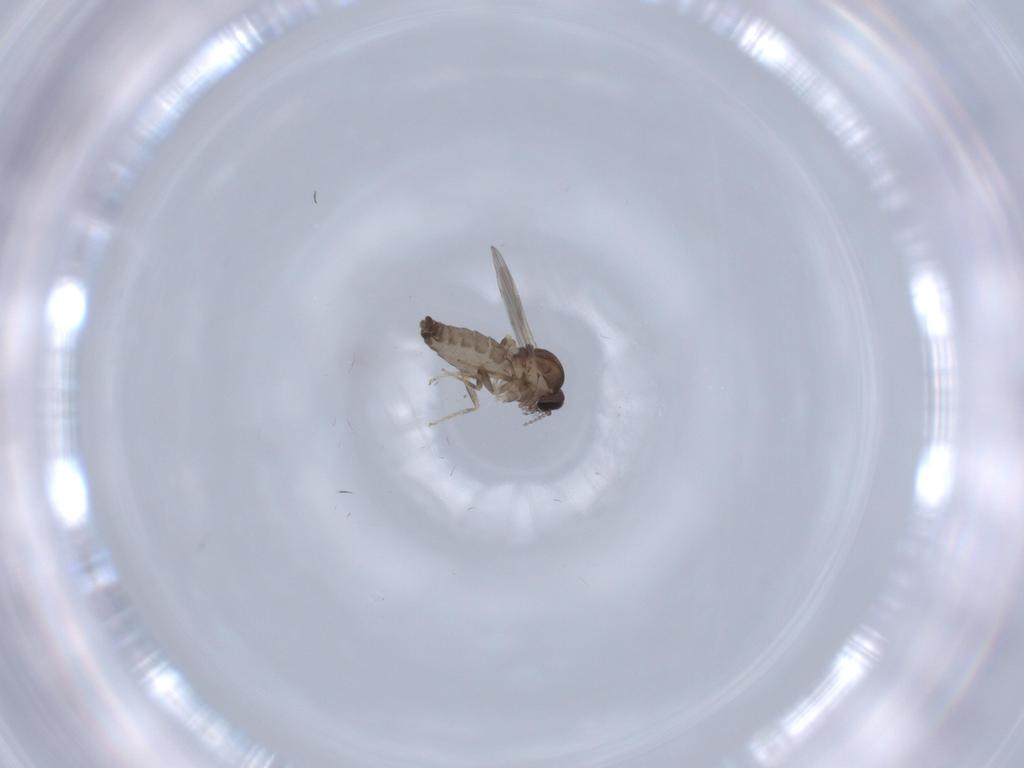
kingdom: Animalia
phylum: Arthropoda
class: Insecta
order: Diptera
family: Ceratopogonidae
